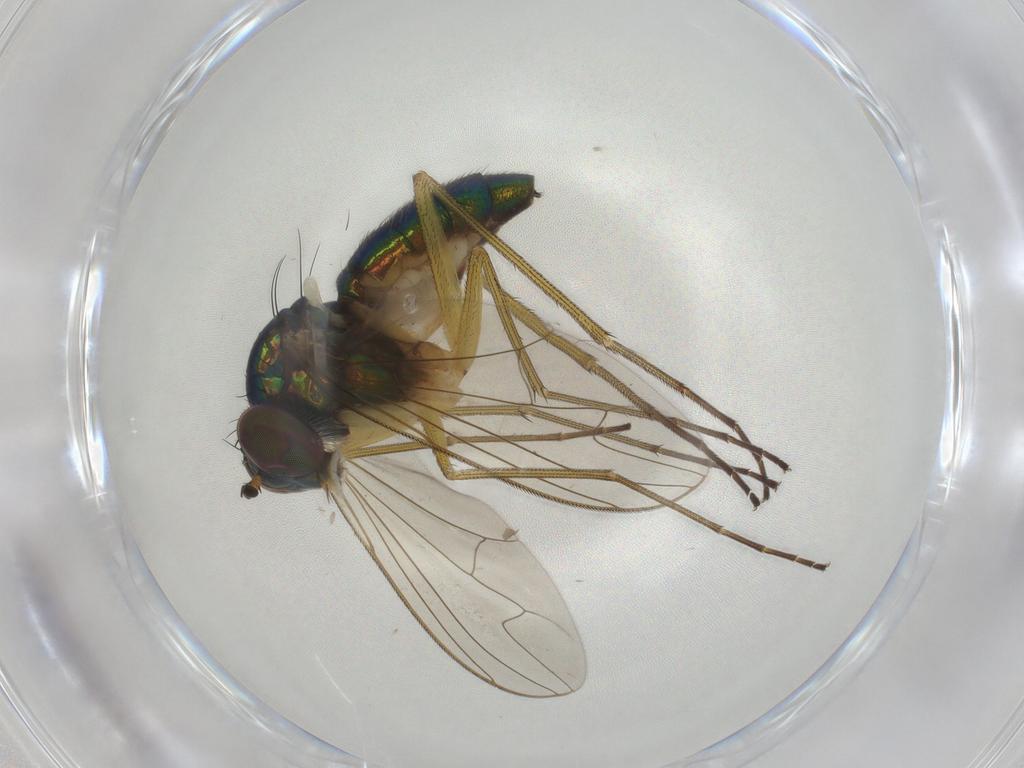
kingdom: Animalia
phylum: Arthropoda
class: Insecta
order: Diptera
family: Dolichopodidae
